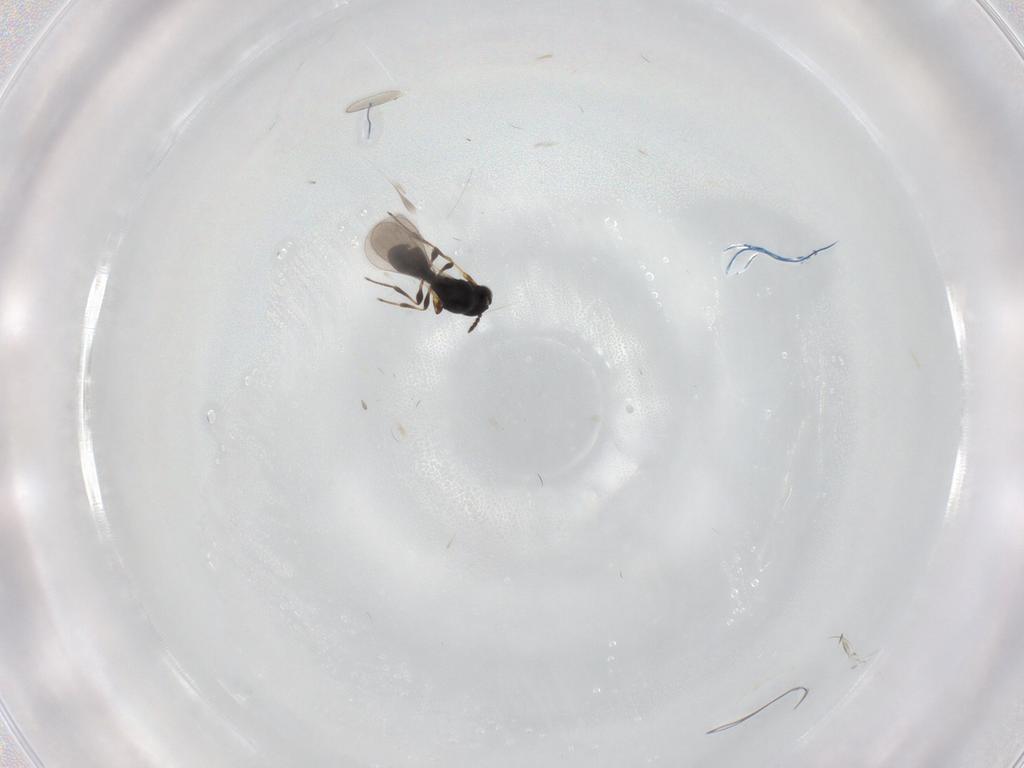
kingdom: Animalia
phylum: Arthropoda
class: Insecta
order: Hymenoptera
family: Platygastridae
